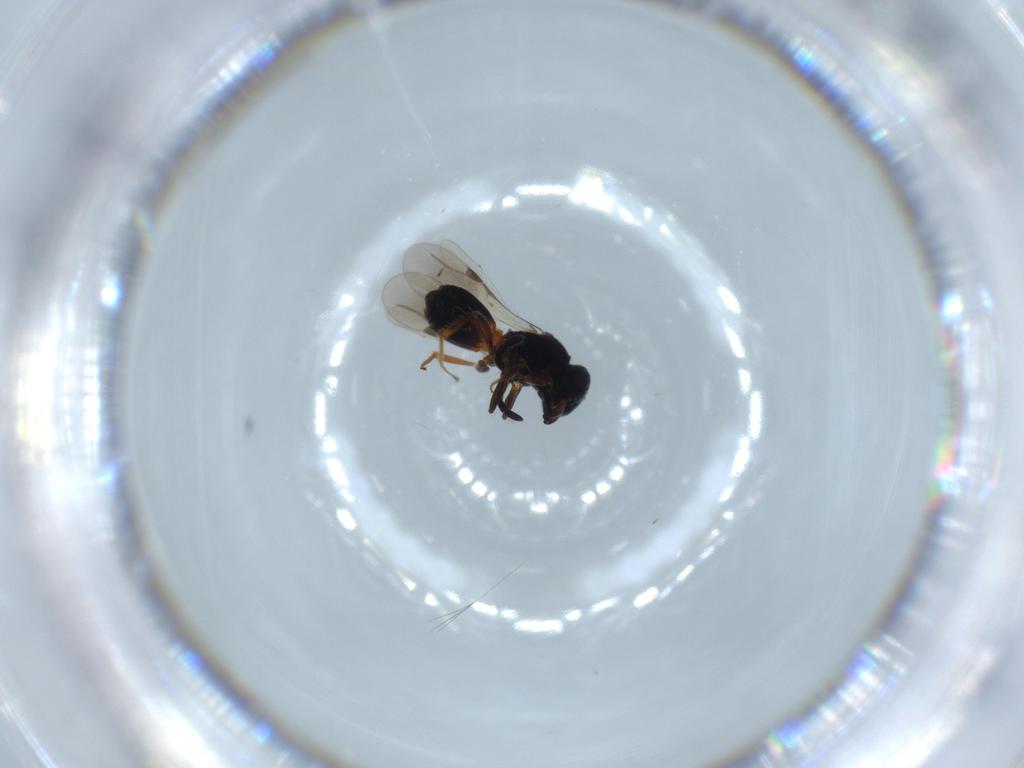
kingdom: Animalia
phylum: Arthropoda
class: Insecta
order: Hymenoptera
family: Megaspilidae
